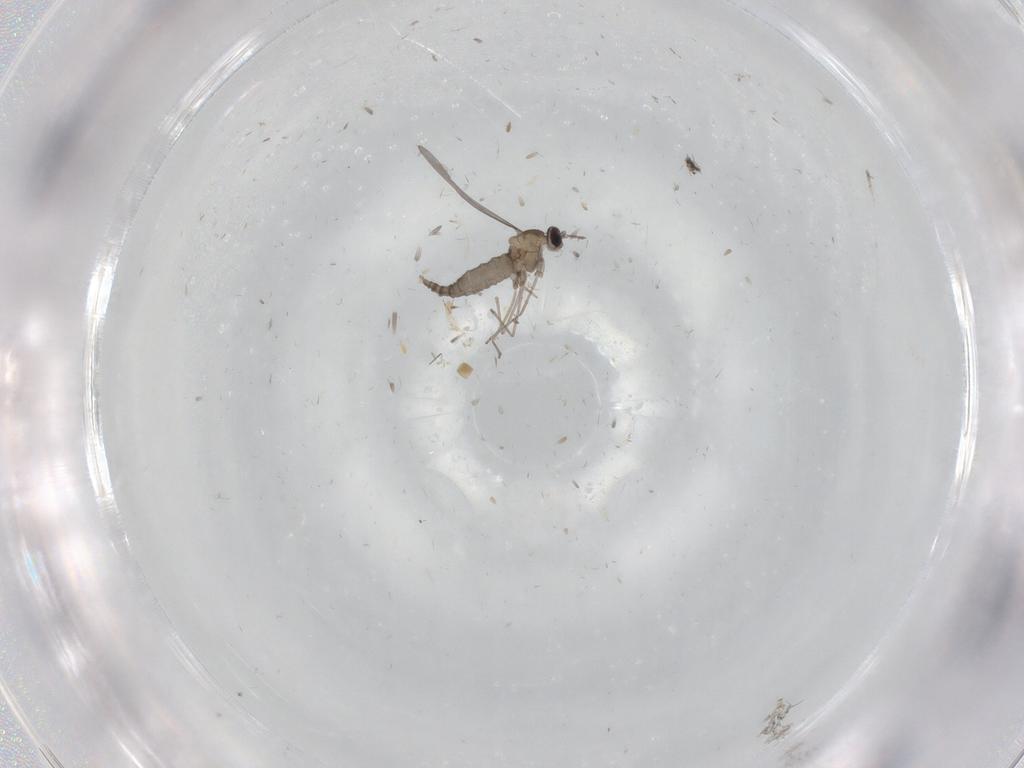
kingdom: Animalia
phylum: Arthropoda
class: Insecta
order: Diptera
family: Cecidomyiidae
